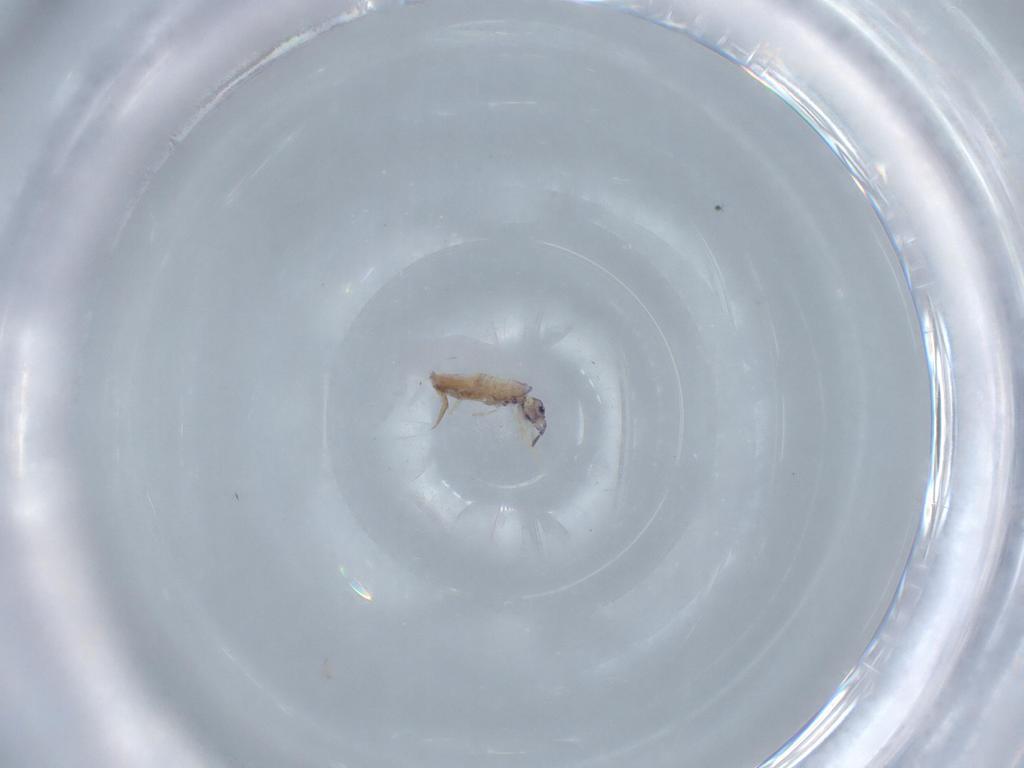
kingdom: Animalia
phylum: Arthropoda
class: Collembola
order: Entomobryomorpha
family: Entomobryidae
